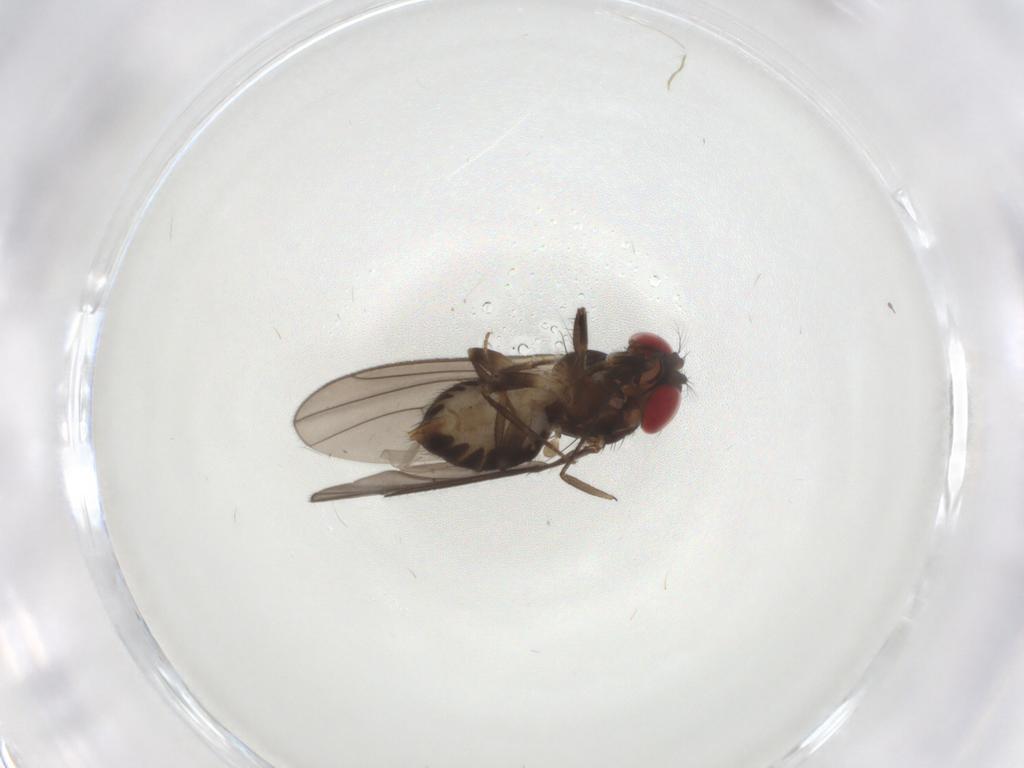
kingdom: Animalia
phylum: Arthropoda
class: Insecta
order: Diptera
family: Drosophilidae
